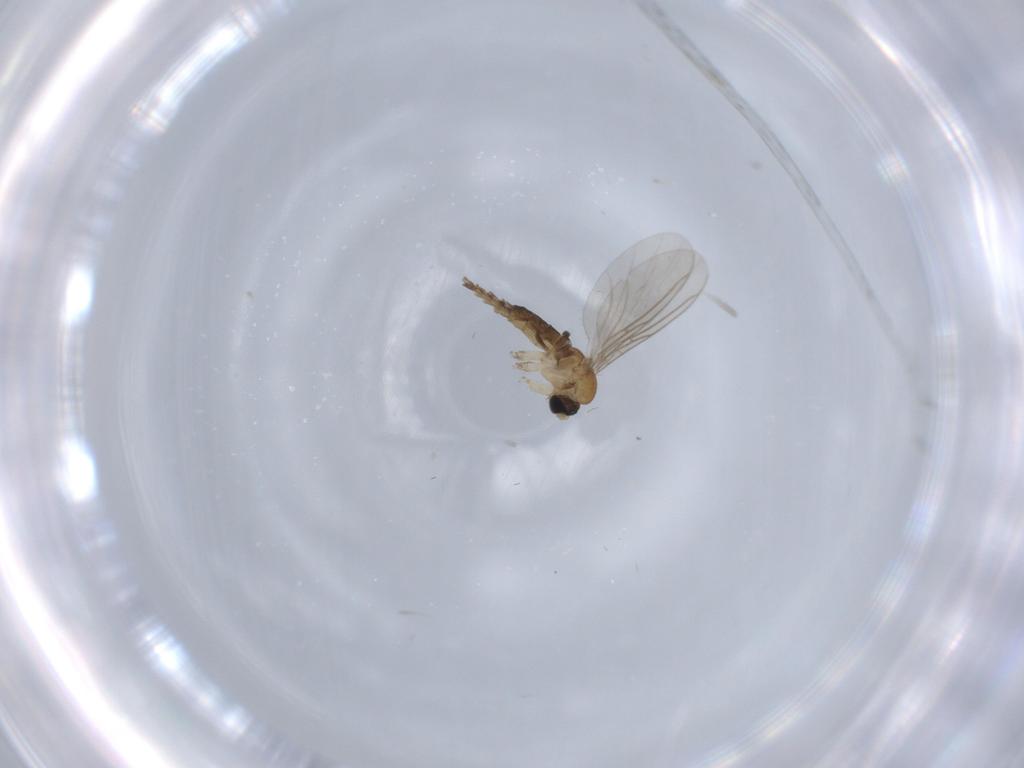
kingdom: Animalia
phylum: Arthropoda
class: Insecta
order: Diptera
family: Sciaridae
